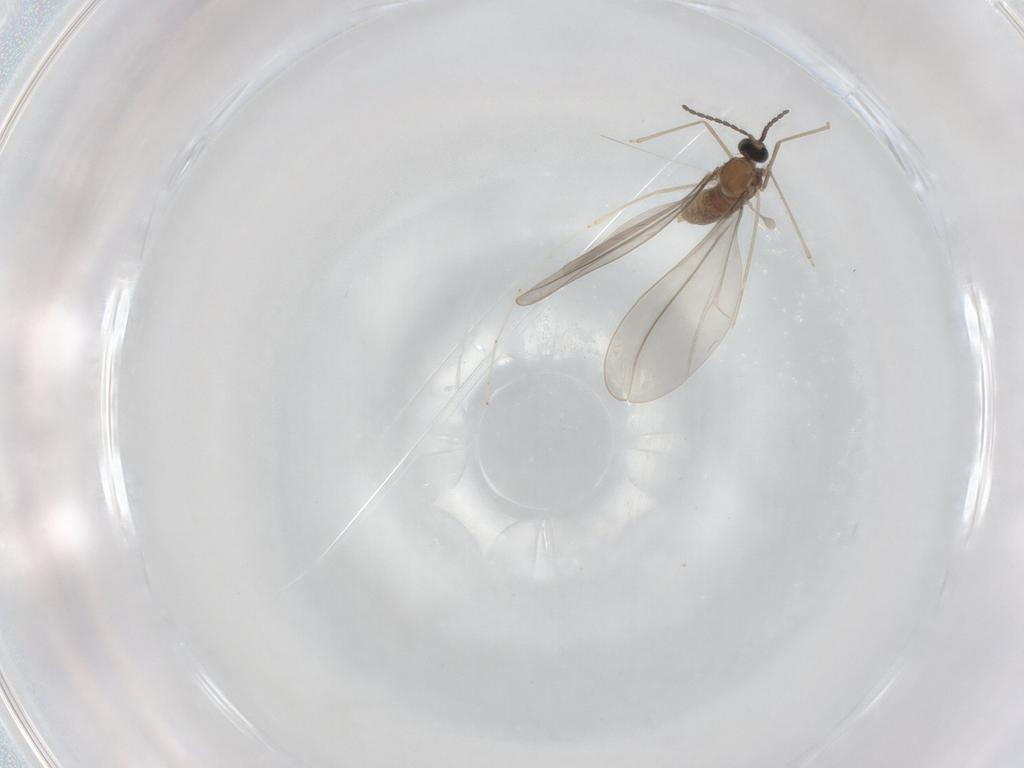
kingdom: Animalia
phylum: Arthropoda
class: Insecta
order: Diptera
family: Cecidomyiidae
